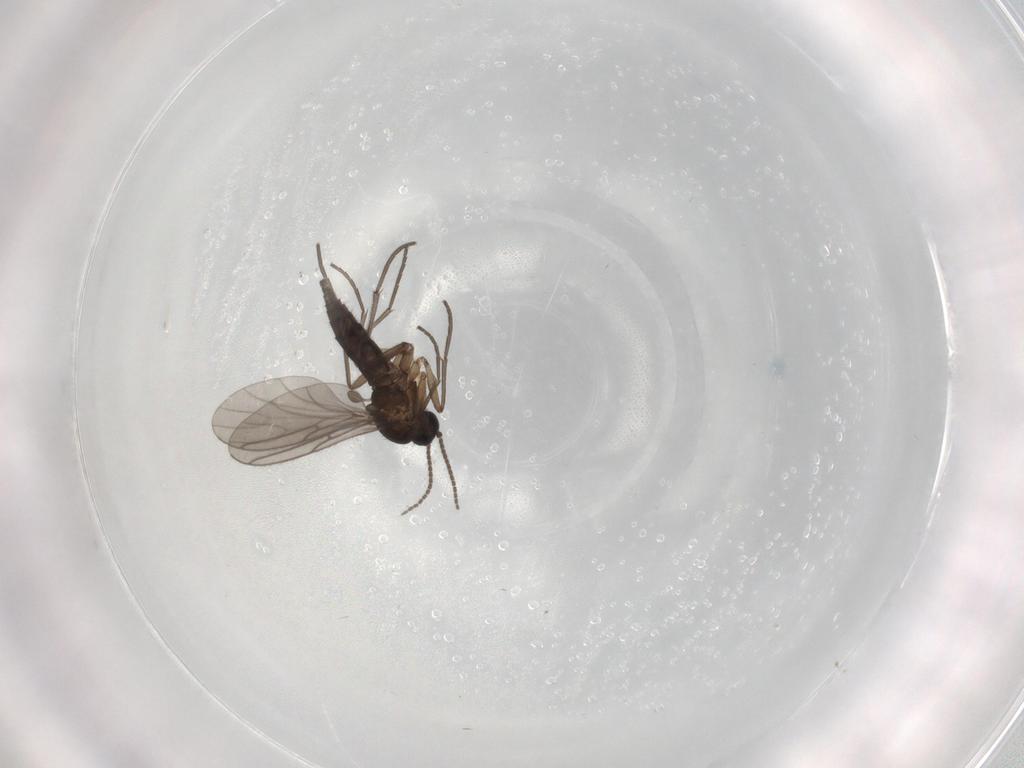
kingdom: Animalia
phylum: Arthropoda
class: Insecta
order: Diptera
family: Sciaridae
